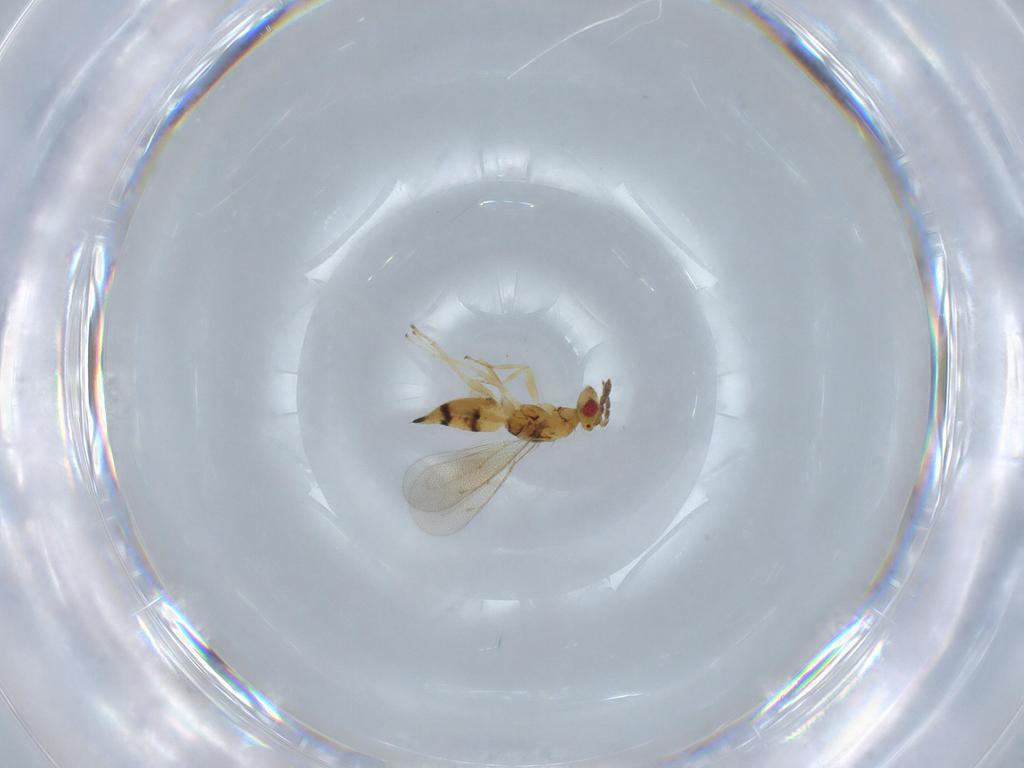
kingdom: Animalia
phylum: Arthropoda
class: Insecta
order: Hymenoptera
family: Eulophidae
